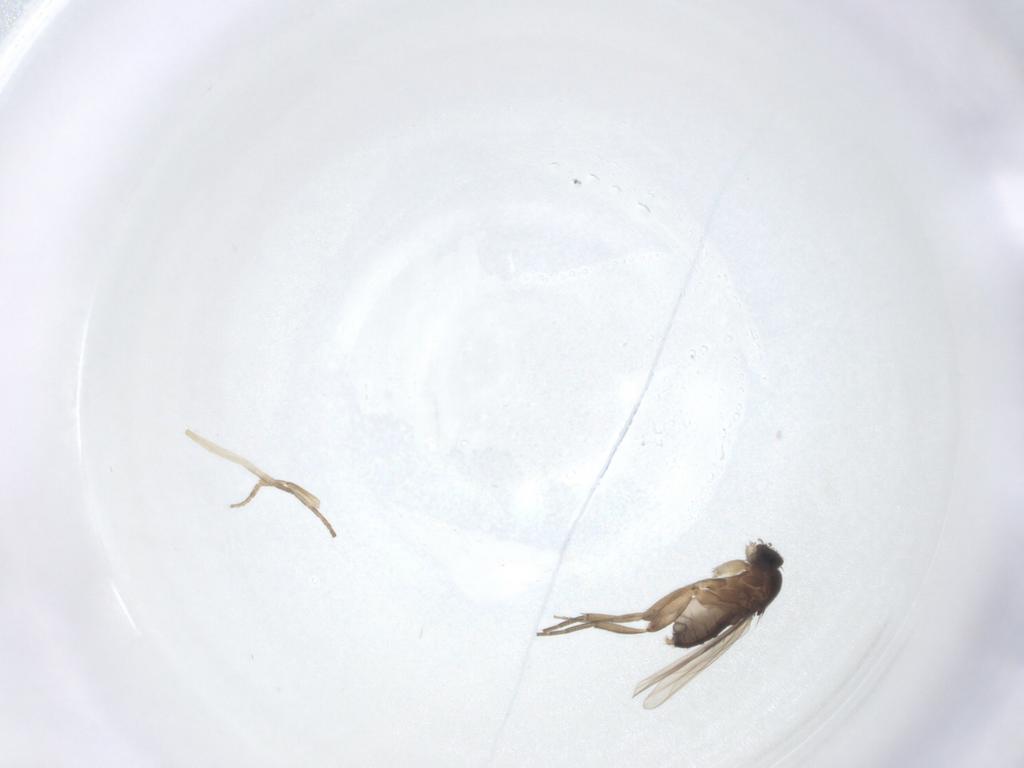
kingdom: Animalia
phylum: Arthropoda
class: Insecta
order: Diptera
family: Phoridae
